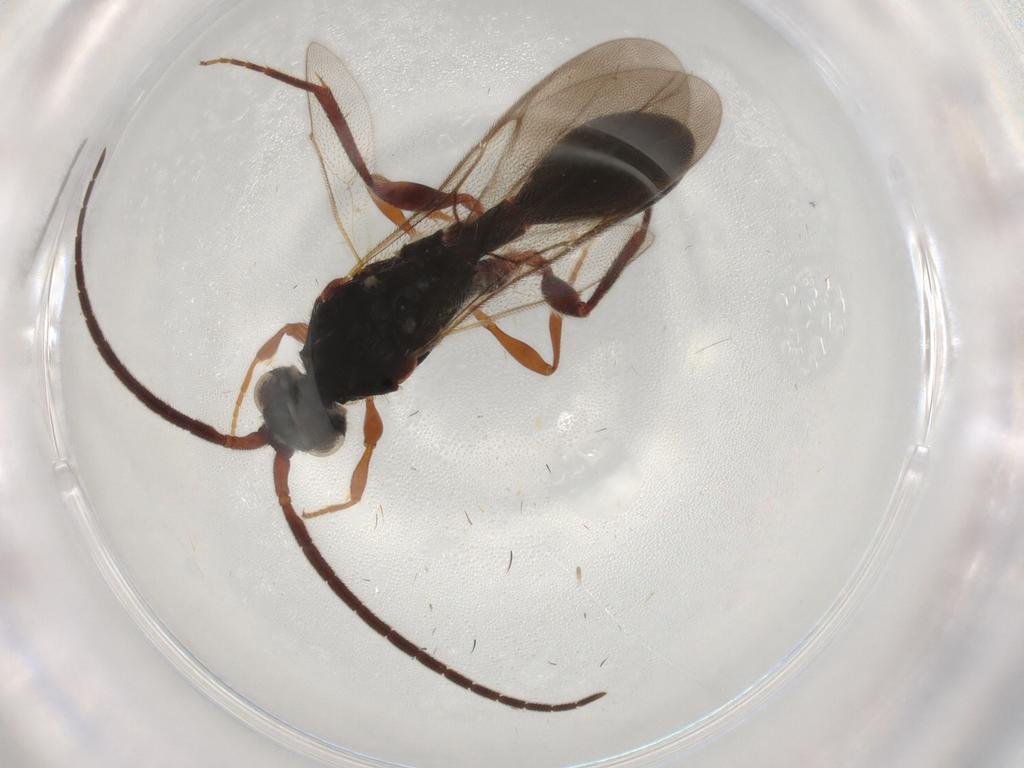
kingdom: Animalia
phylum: Arthropoda
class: Insecta
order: Hymenoptera
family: Diapriidae
